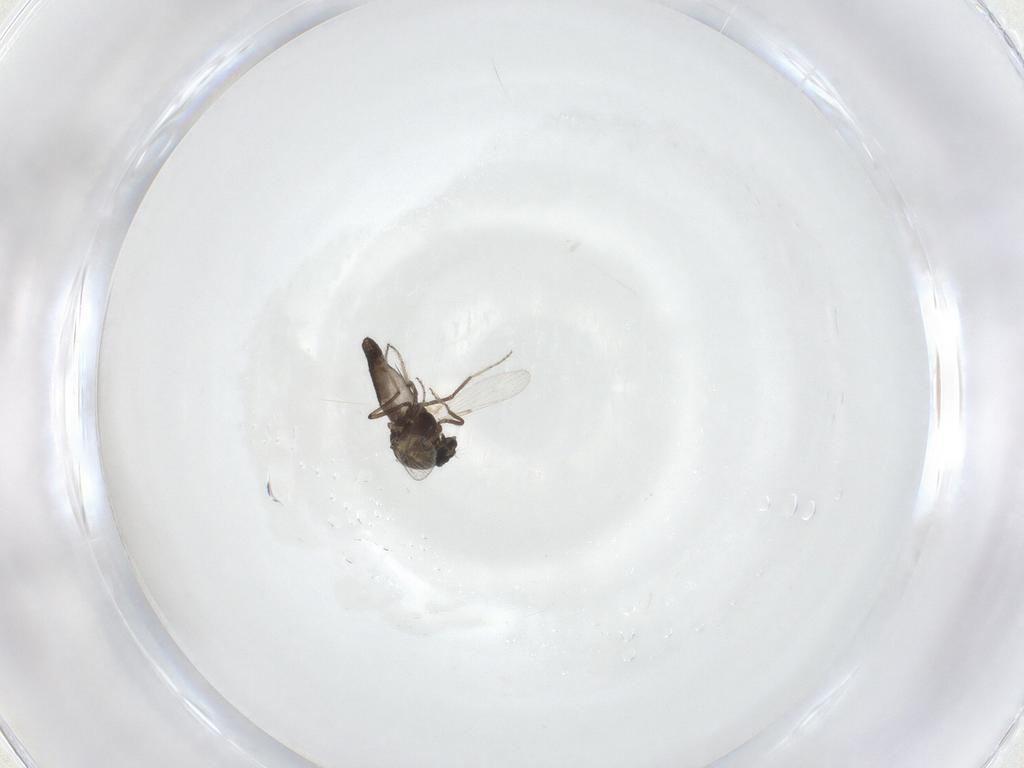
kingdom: Animalia
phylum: Arthropoda
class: Insecta
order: Diptera
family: Ceratopogonidae
